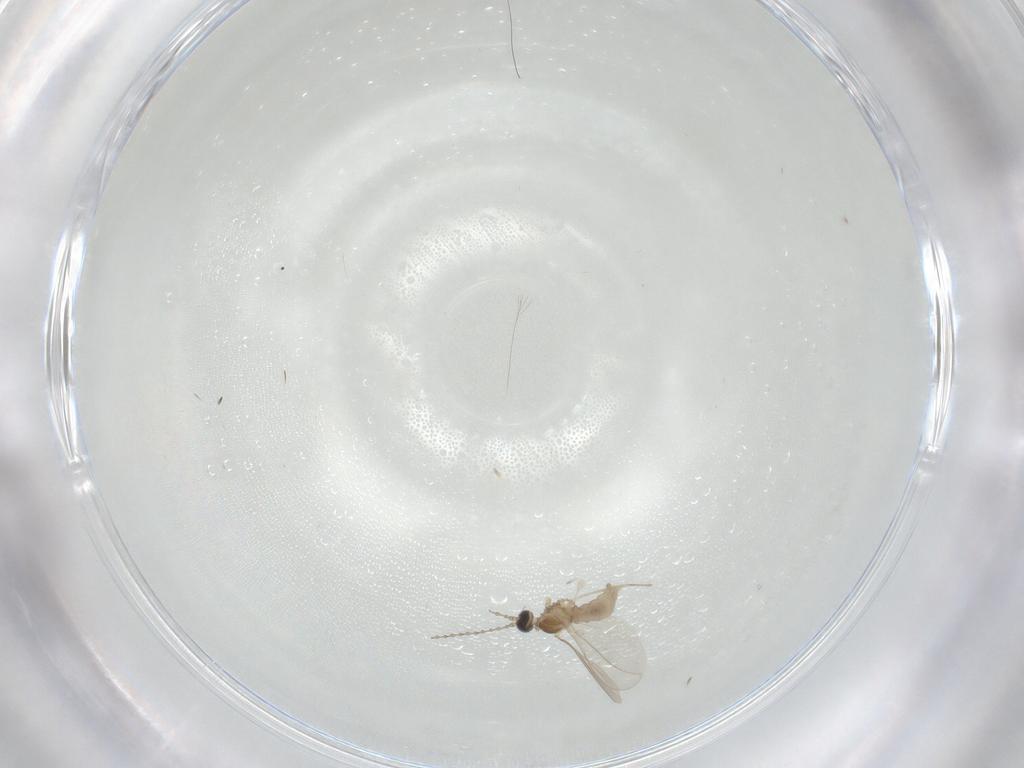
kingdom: Animalia
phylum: Arthropoda
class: Insecta
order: Diptera
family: Cecidomyiidae
